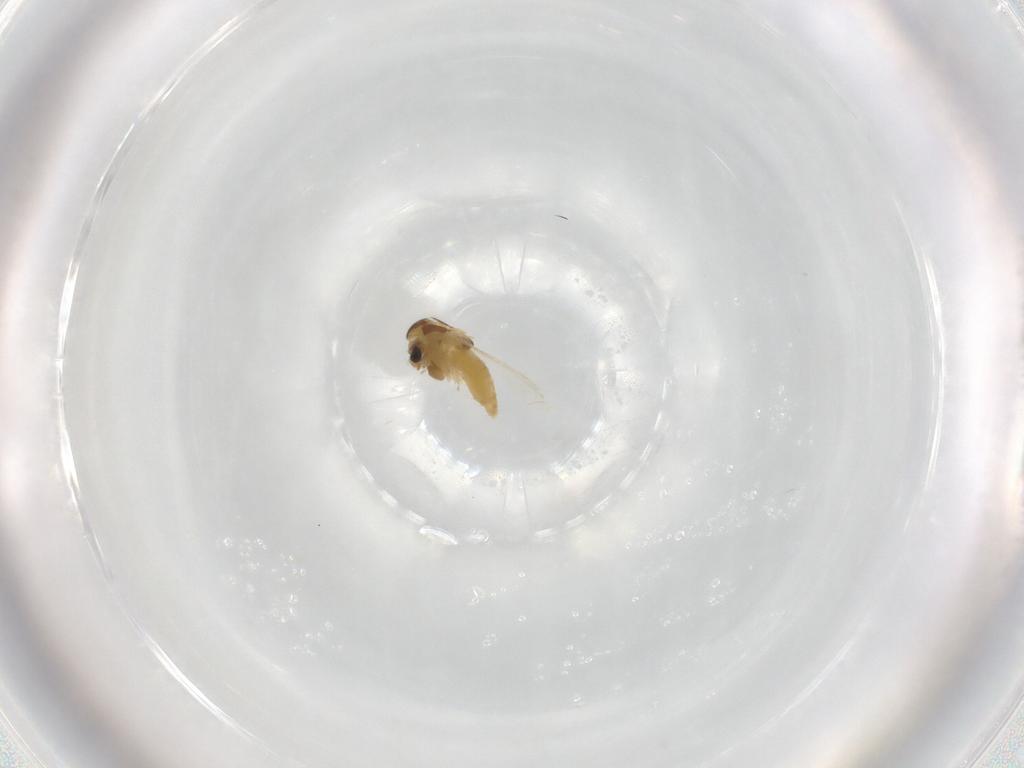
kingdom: Animalia
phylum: Arthropoda
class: Insecta
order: Diptera
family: Chironomidae
